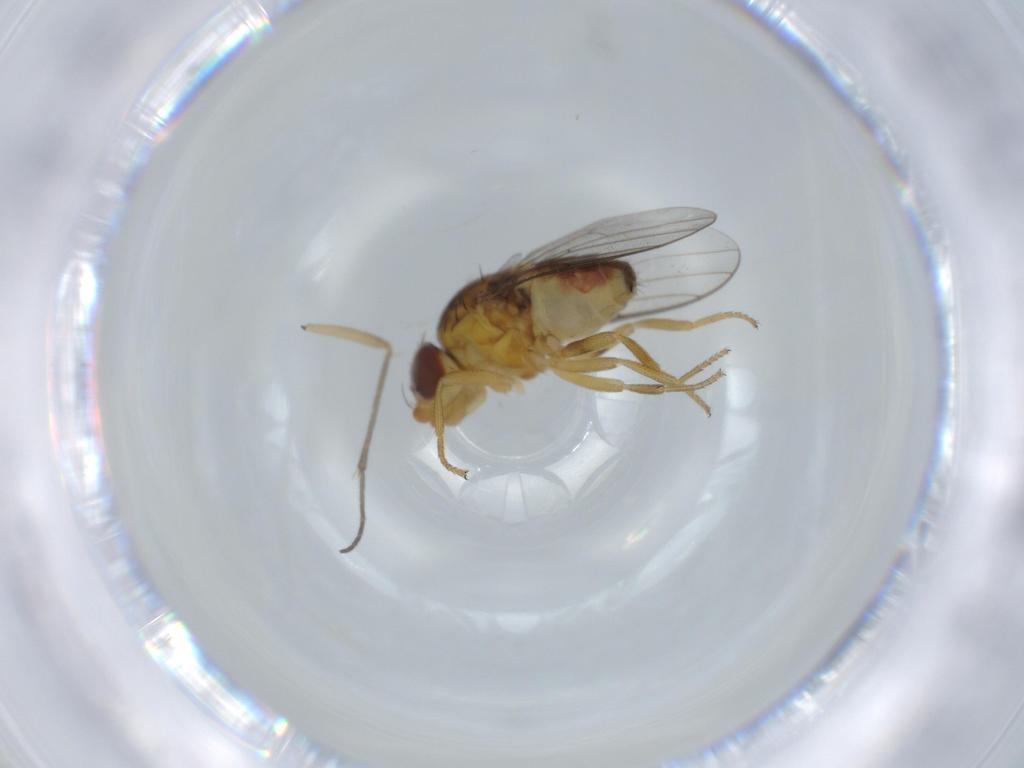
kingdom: Animalia
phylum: Arthropoda
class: Insecta
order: Diptera
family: Chloropidae
